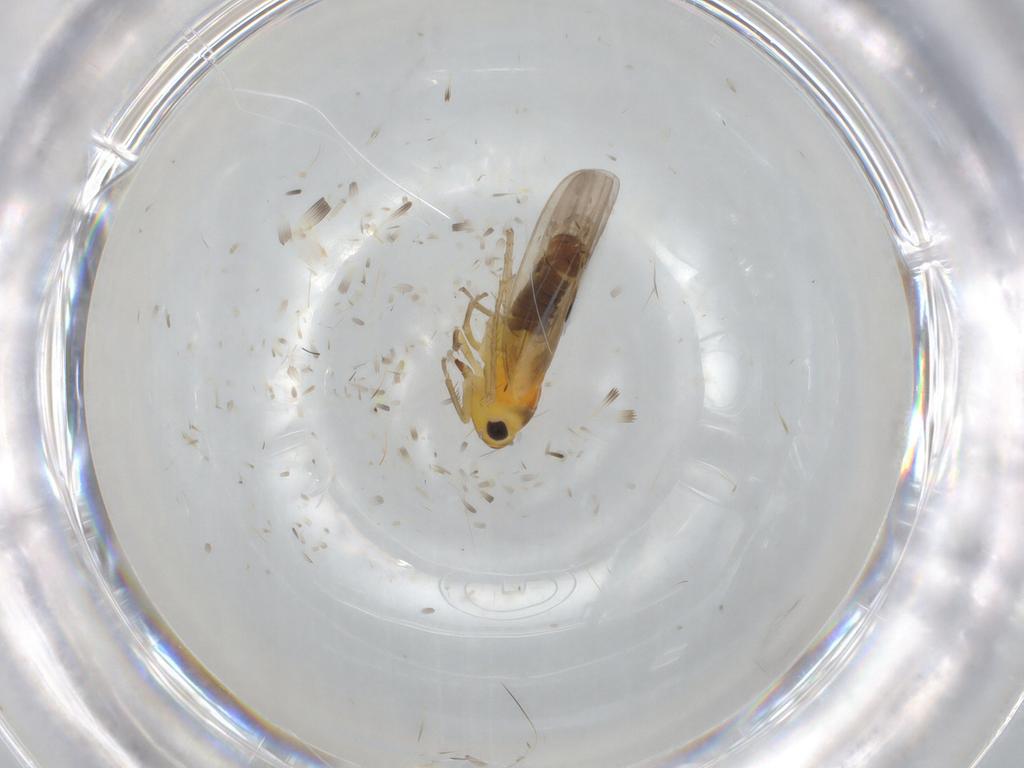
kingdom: Animalia
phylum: Arthropoda
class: Insecta
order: Hemiptera
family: Cicadellidae
